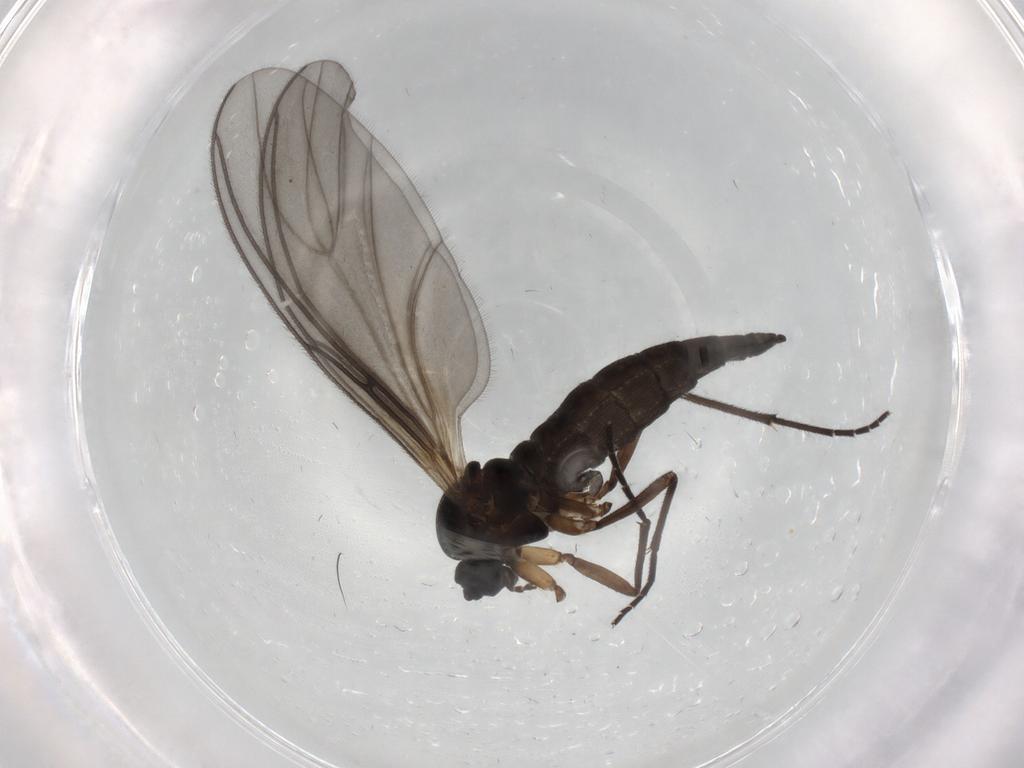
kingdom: Animalia
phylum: Arthropoda
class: Insecta
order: Diptera
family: Sciaridae
